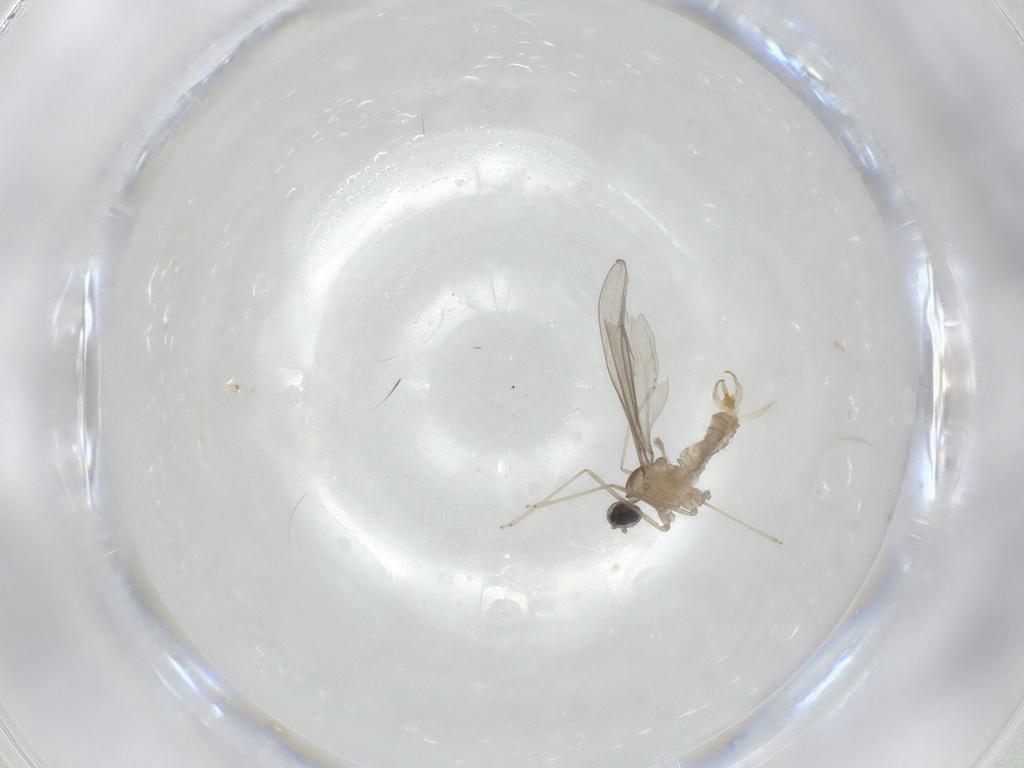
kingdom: Animalia
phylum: Arthropoda
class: Insecta
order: Diptera
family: Cecidomyiidae
